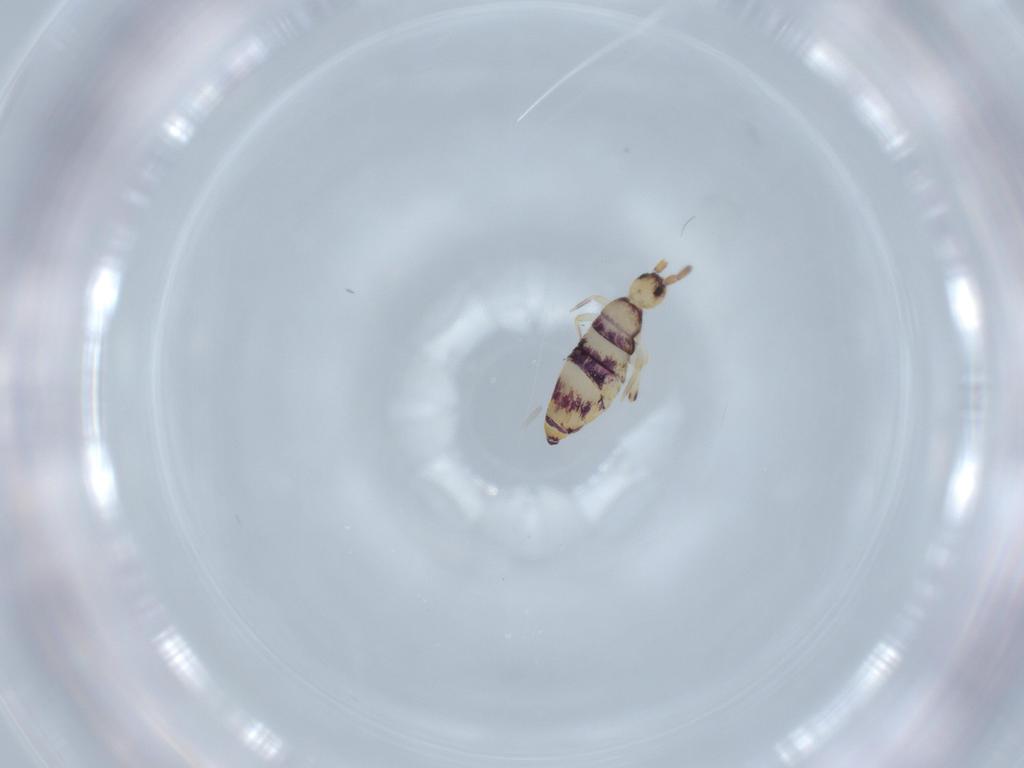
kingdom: Animalia
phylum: Arthropoda
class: Collembola
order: Entomobryomorpha
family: Entomobryidae
